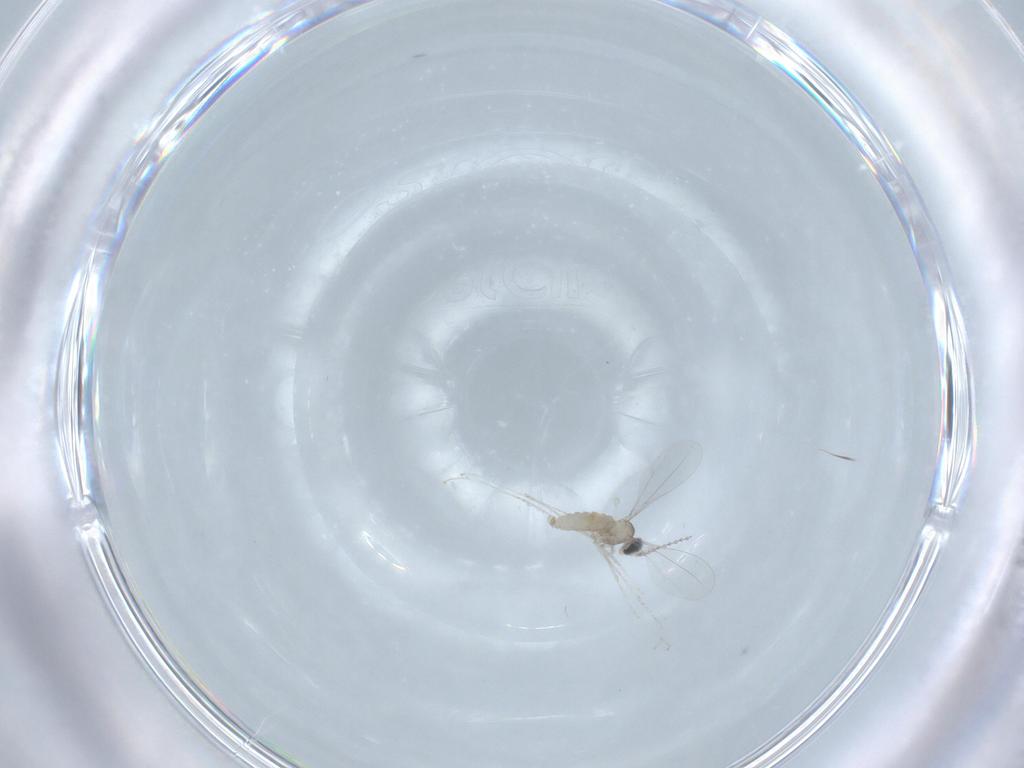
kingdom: Animalia
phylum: Arthropoda
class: Insecta
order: Diptera
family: Cecidomyiidae
